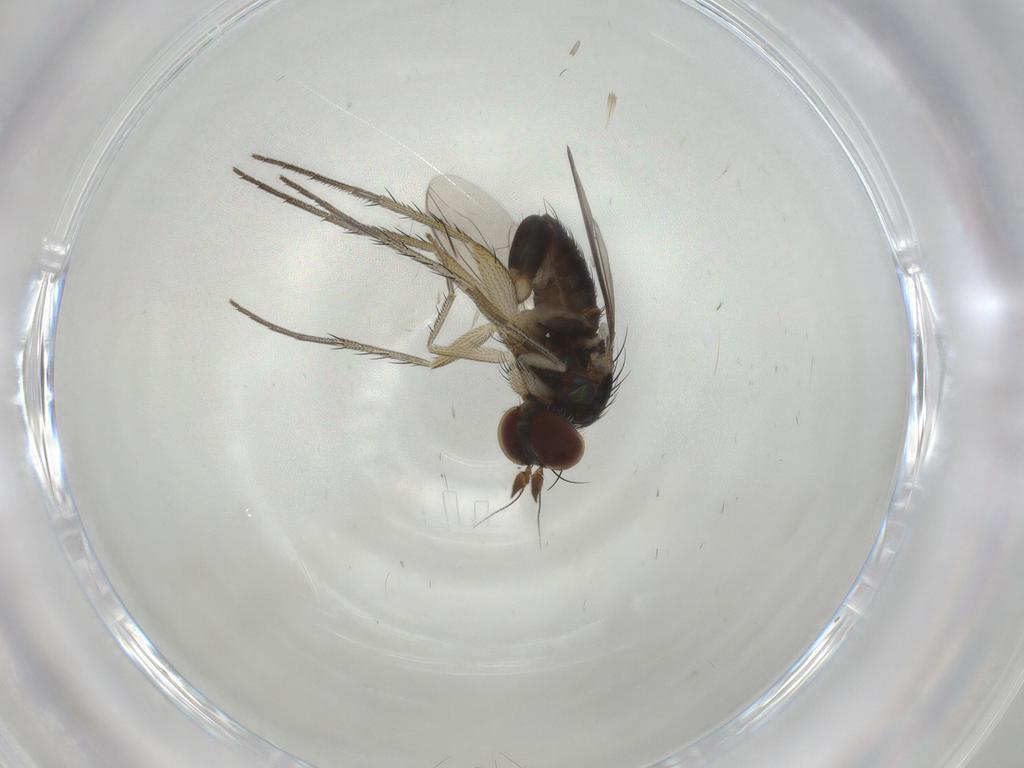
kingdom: Animalia
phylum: Arthropoda
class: Insecta
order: Diptera
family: Dolichopodidae
